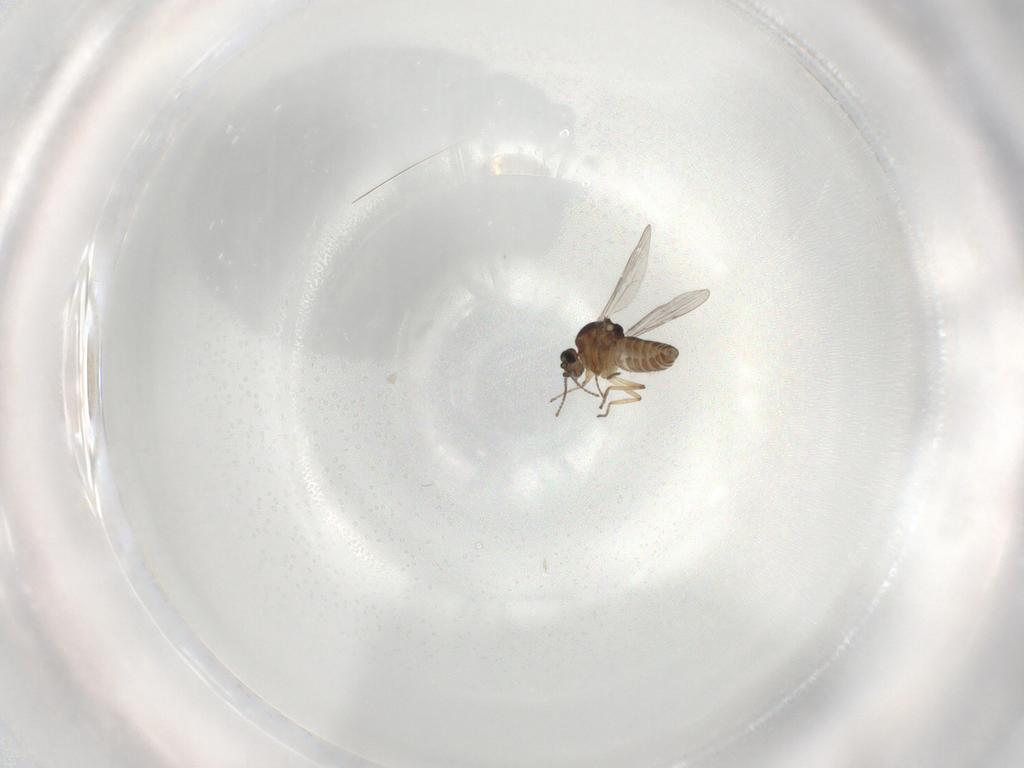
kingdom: Animalia
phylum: Arthropoda
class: Insecta
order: Diptera
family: Ceratopogonidae
